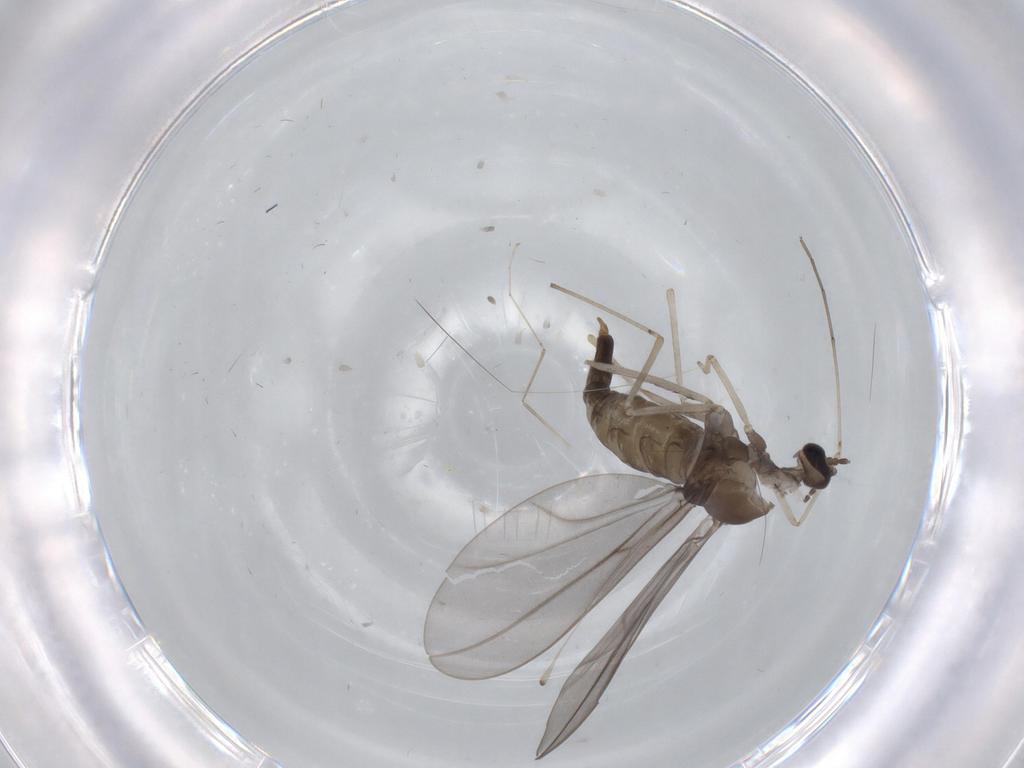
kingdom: Animalia
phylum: Arthropoda
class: Insecta
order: Diptera
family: Cecidomyiidae
